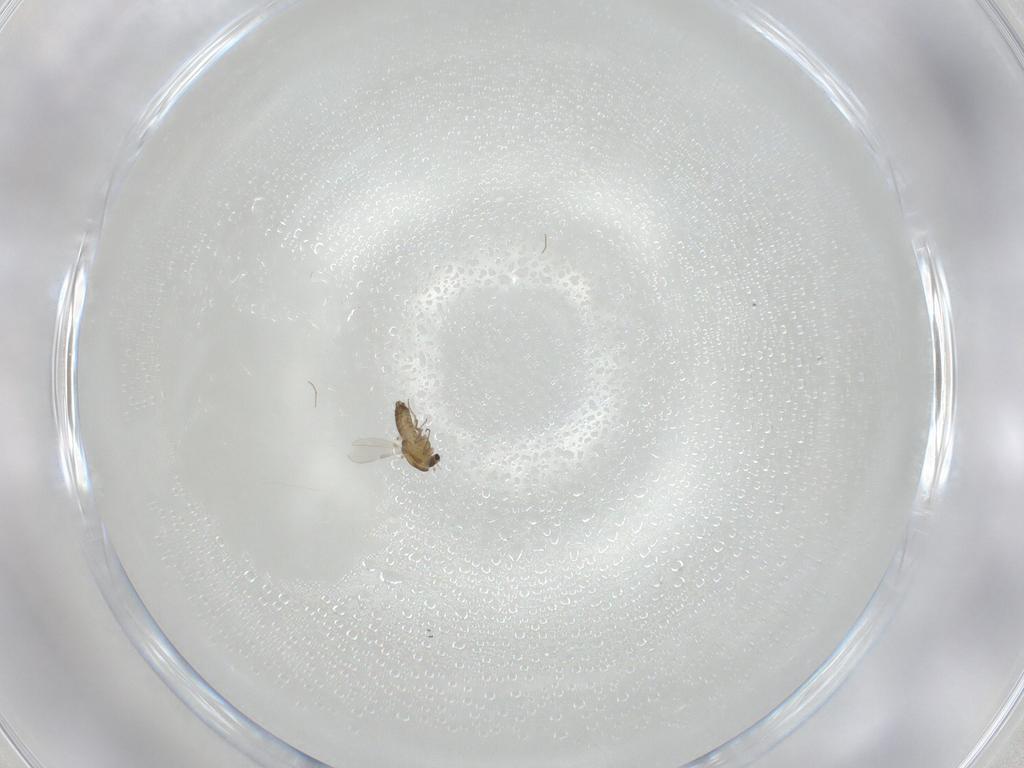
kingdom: Animalia
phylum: Arthropoda
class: Insecta
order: Diptera
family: Chironomidae
